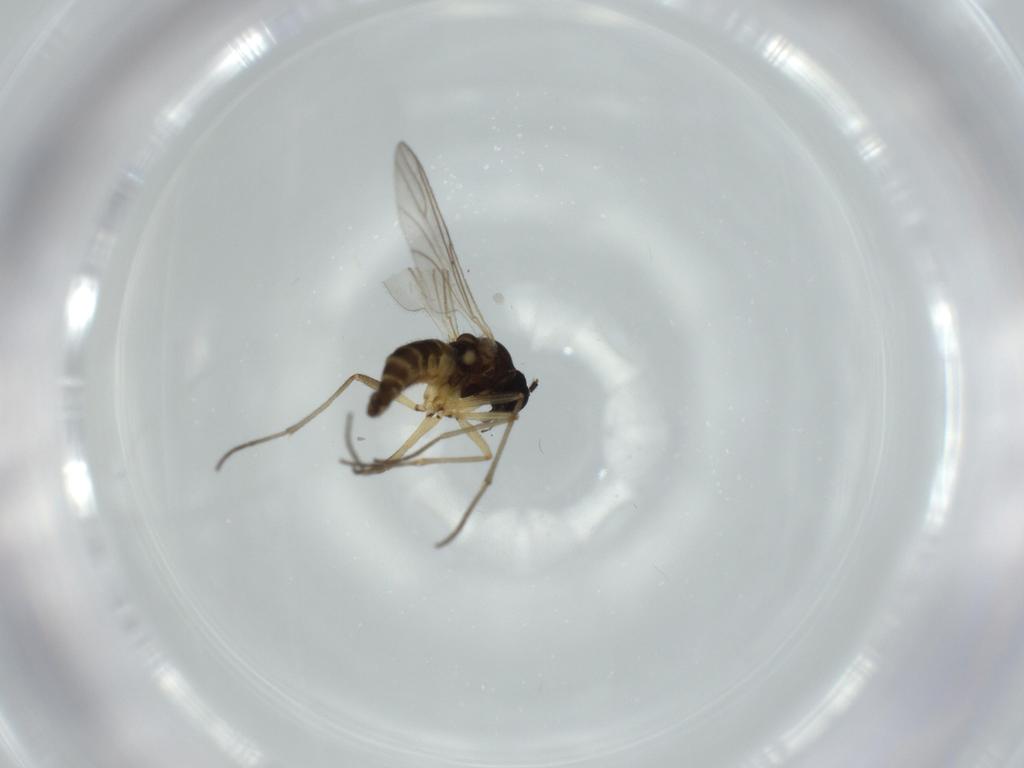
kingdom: Animalia
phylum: Arthropoda
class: Insecta
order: Diptera
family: Sciaridae
